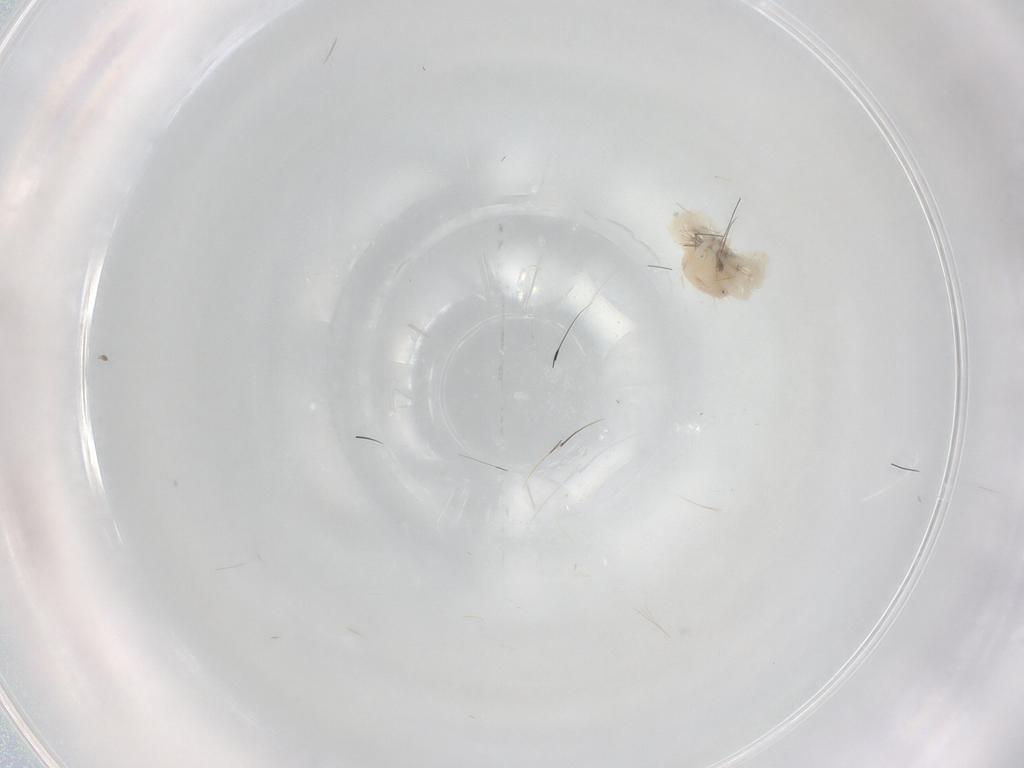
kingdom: Animalia
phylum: Arthropoda
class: Arachnida
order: Trombidiformes
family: Anystidae
